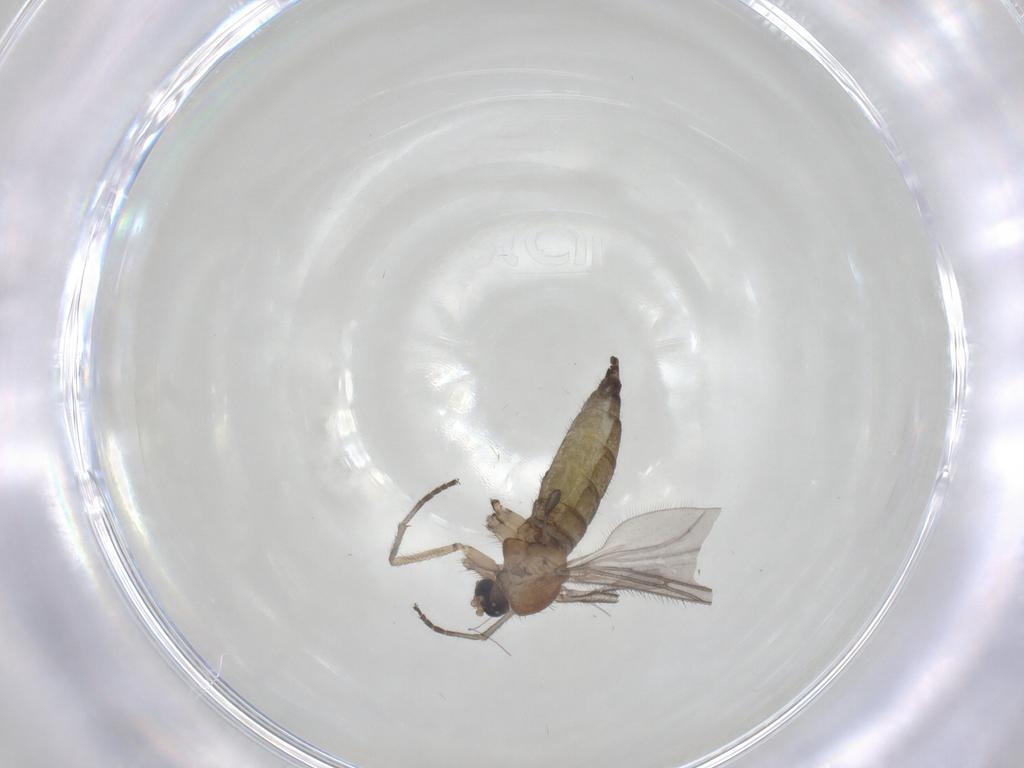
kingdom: Animalia
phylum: Arthropoda
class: Insecta
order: Diptera
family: Sciaridae
